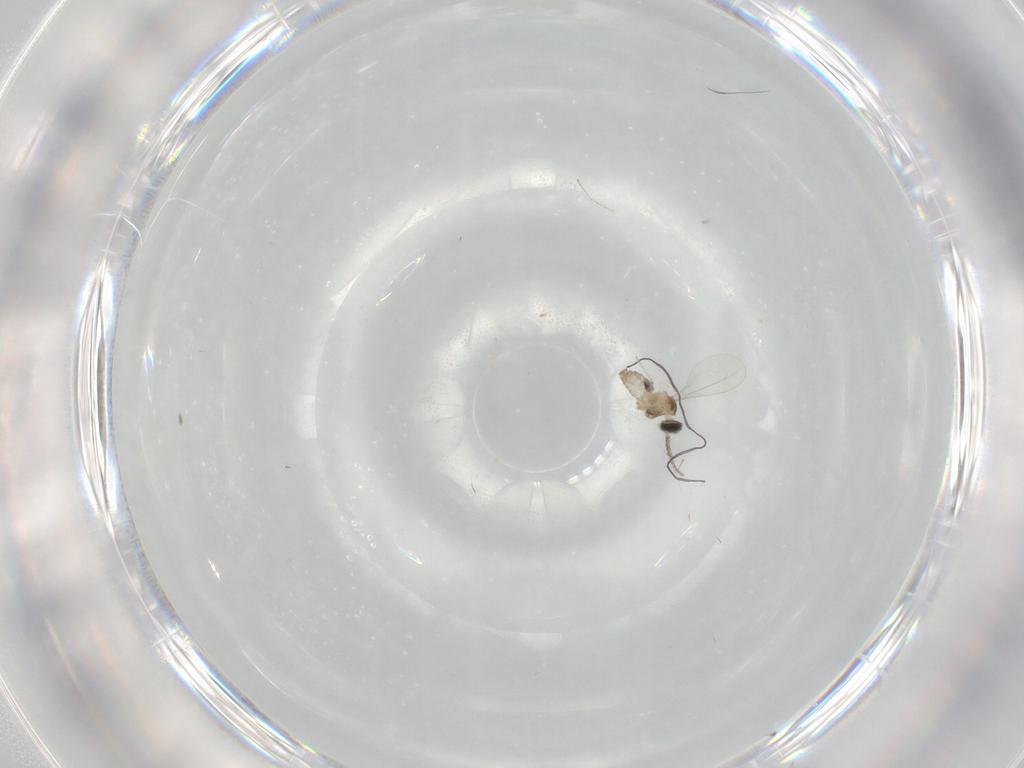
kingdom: Animalia
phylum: Arthropoda
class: Insecta
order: Diptera
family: Cecidomyiidae
